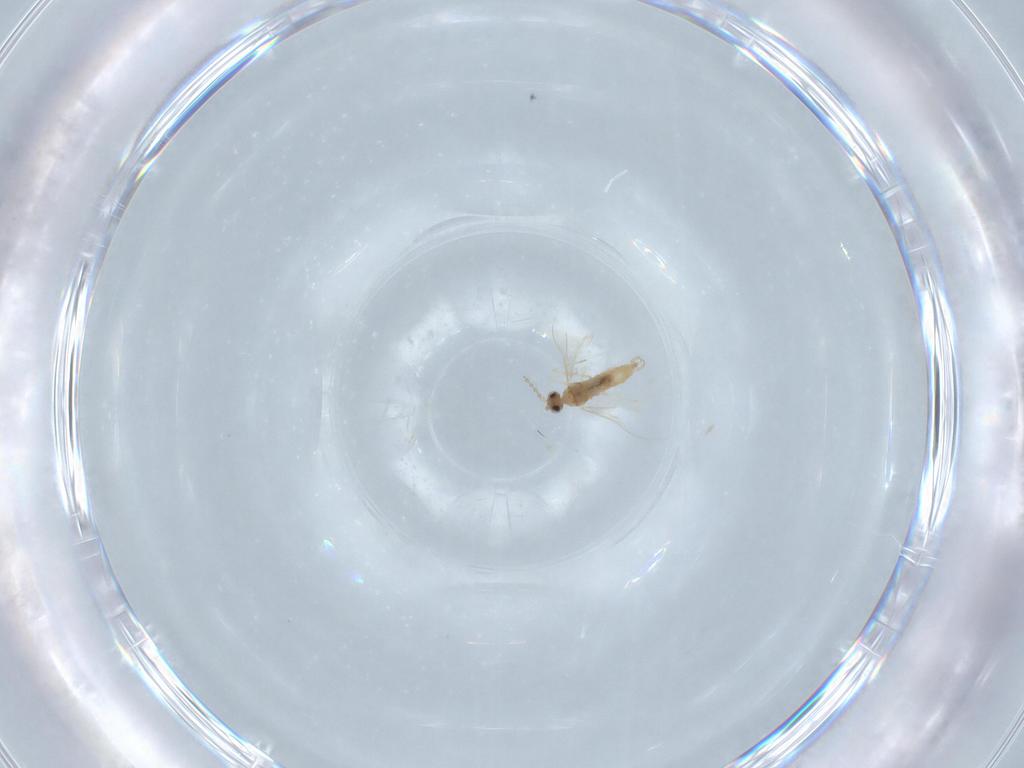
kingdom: Animalia
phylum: Arthropoda
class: Insecta
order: Diptera
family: Cecidomyiidae
